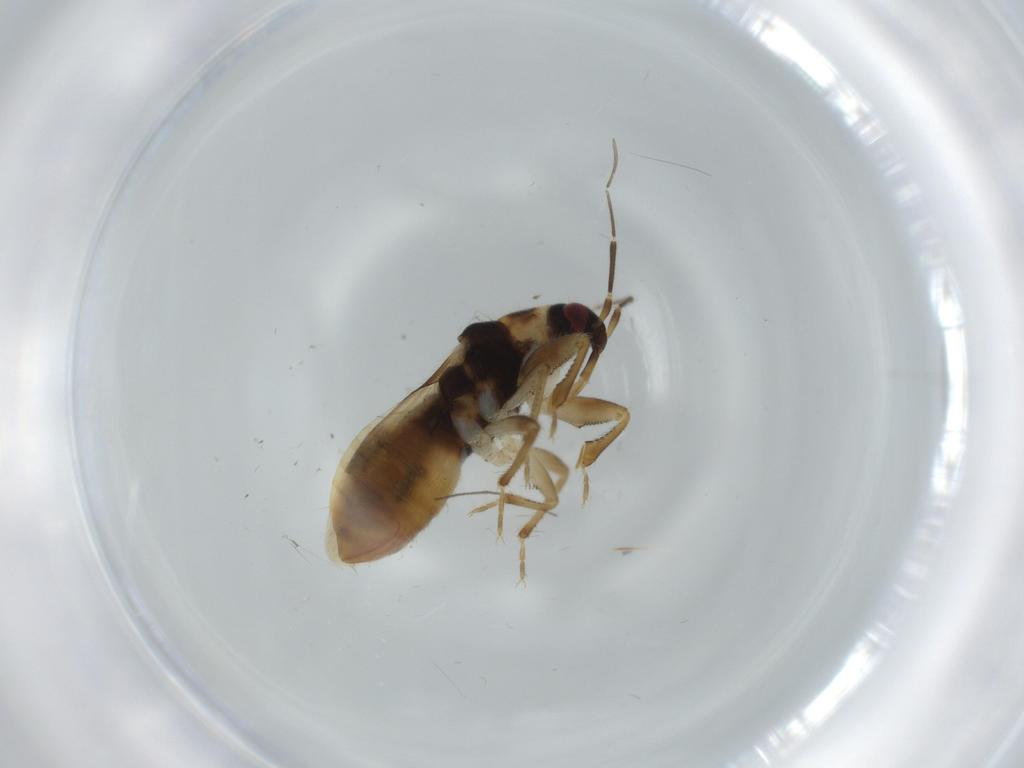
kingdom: Animalia
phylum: Arthropoda
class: Insecta
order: Hemiptera
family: Nabidae
